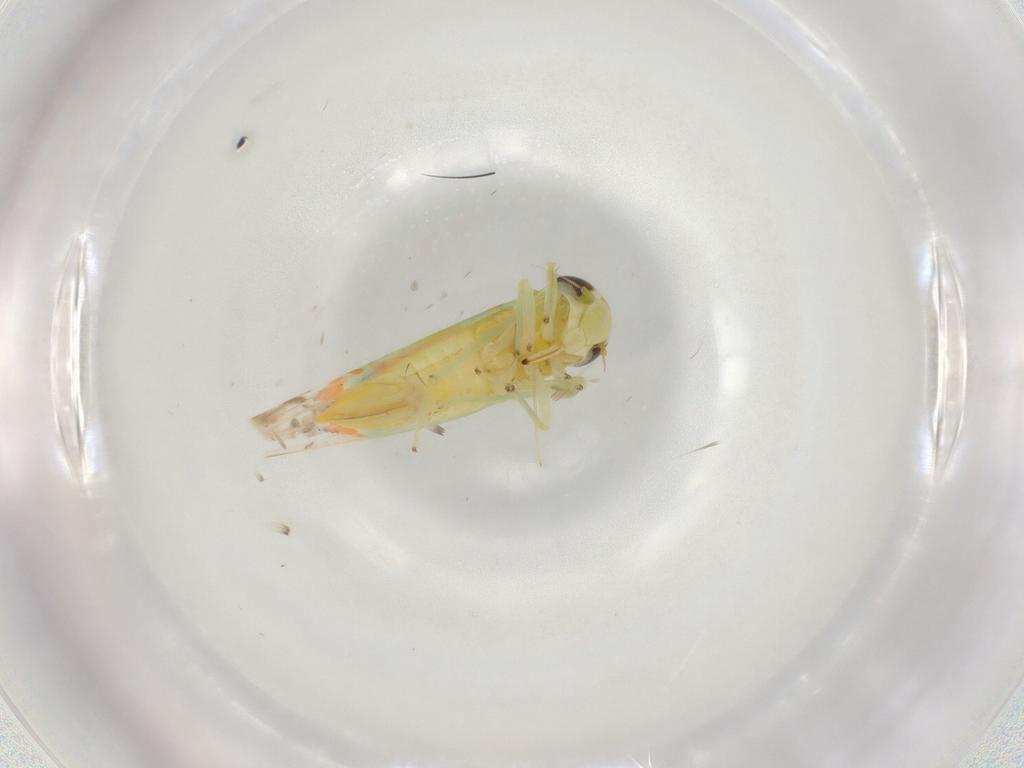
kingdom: Animalia
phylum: Arthropoda
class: Insecta
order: Hemiptera
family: Cicadellidae
